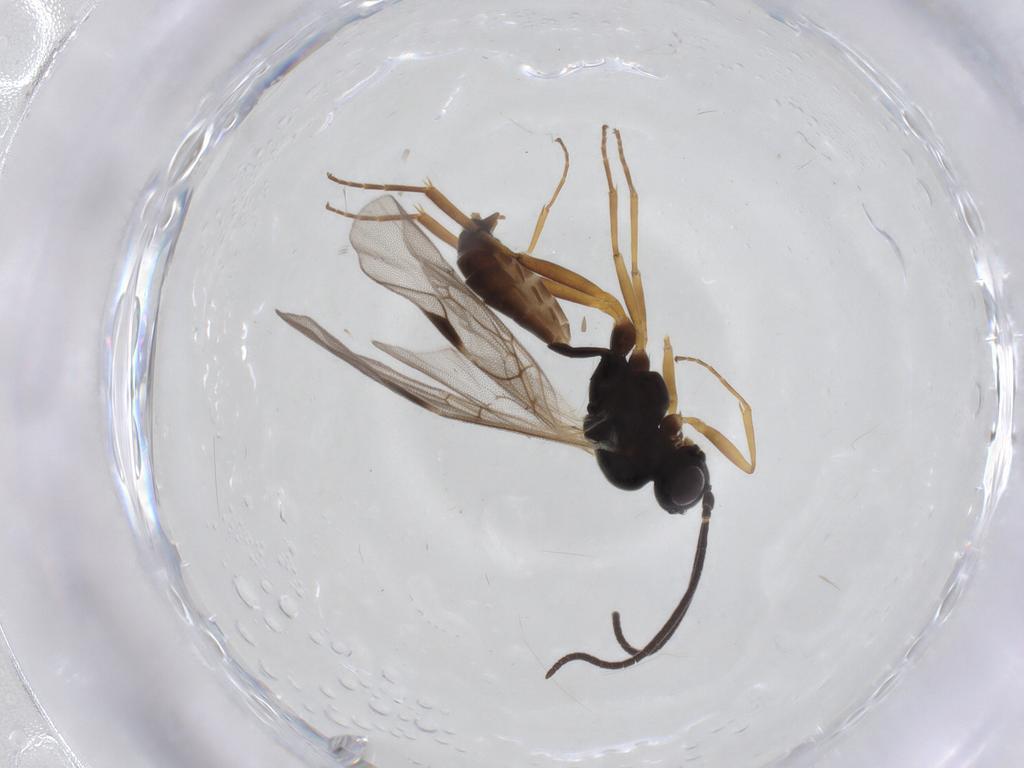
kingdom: Animalia
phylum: Arthropoda
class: Insecta
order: Hymenoptera
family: Ichneumonidae
